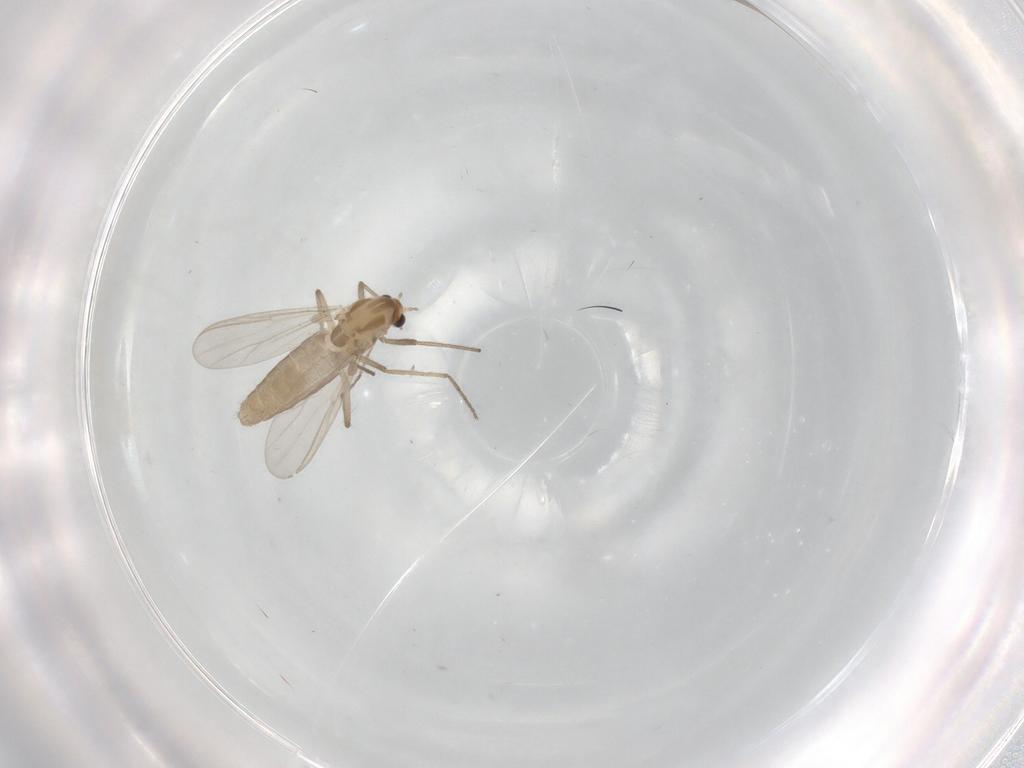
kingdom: Animalia
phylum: Arthropoda
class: Insecta
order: Diptera
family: Chironomidae
